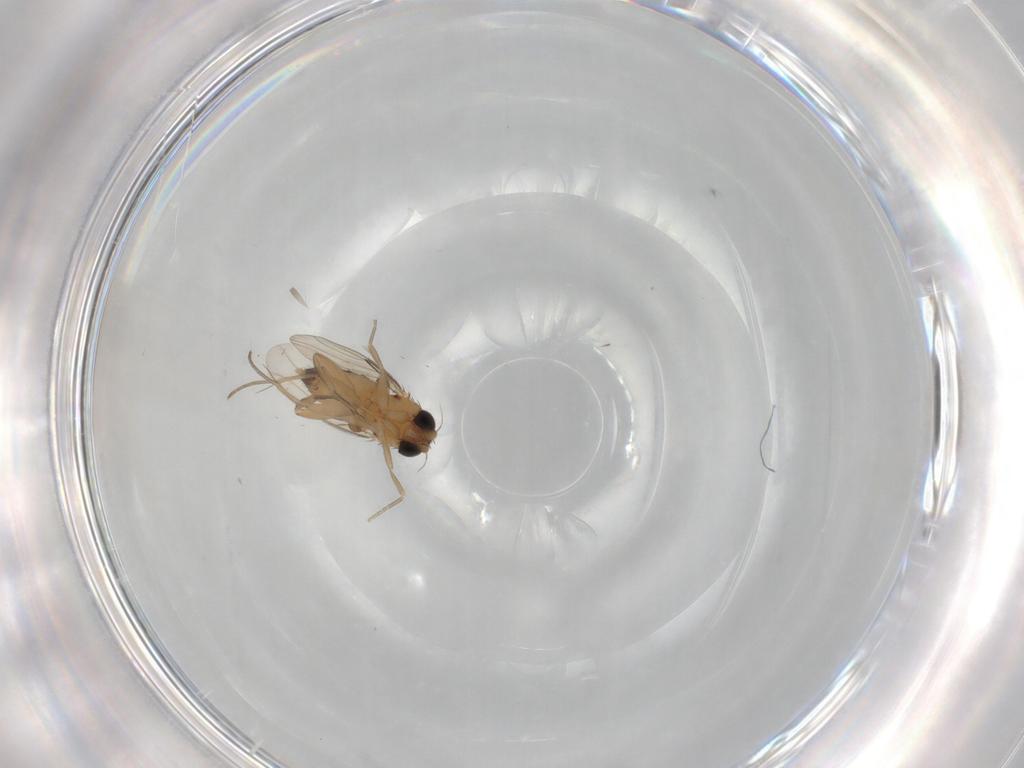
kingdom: Animalia
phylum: Arthropoda
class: Insecta
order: Diptera
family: Phoridae
